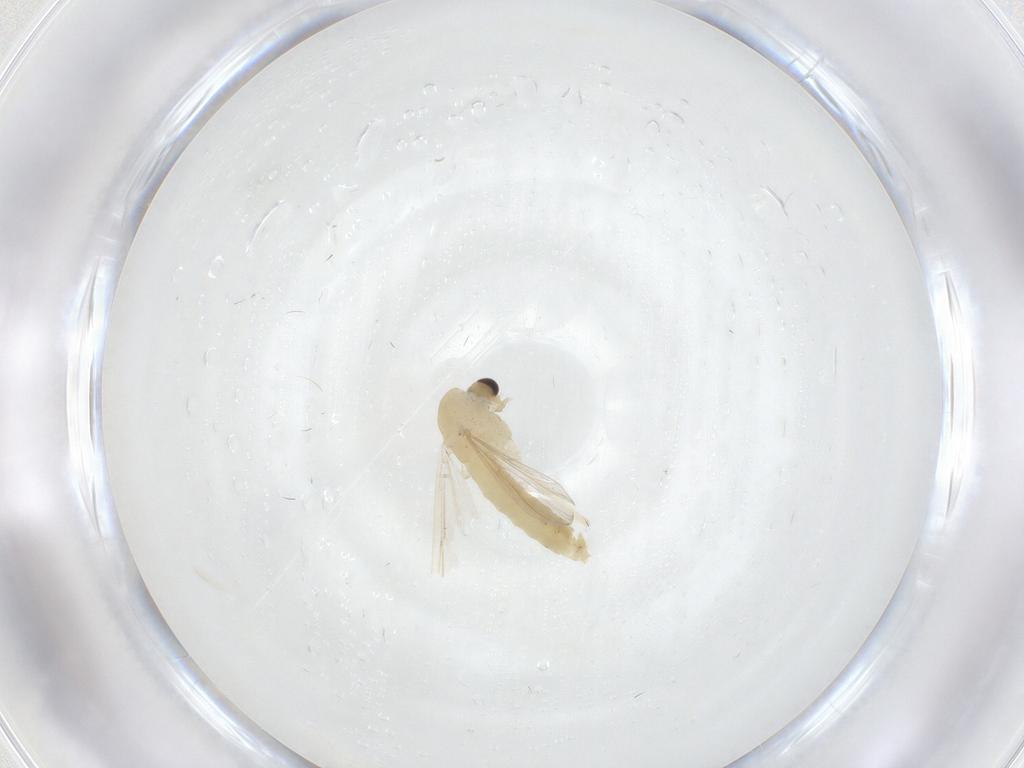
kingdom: Animalia
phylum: Arthropoda
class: Insecta
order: Diptera
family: Chironomidae
